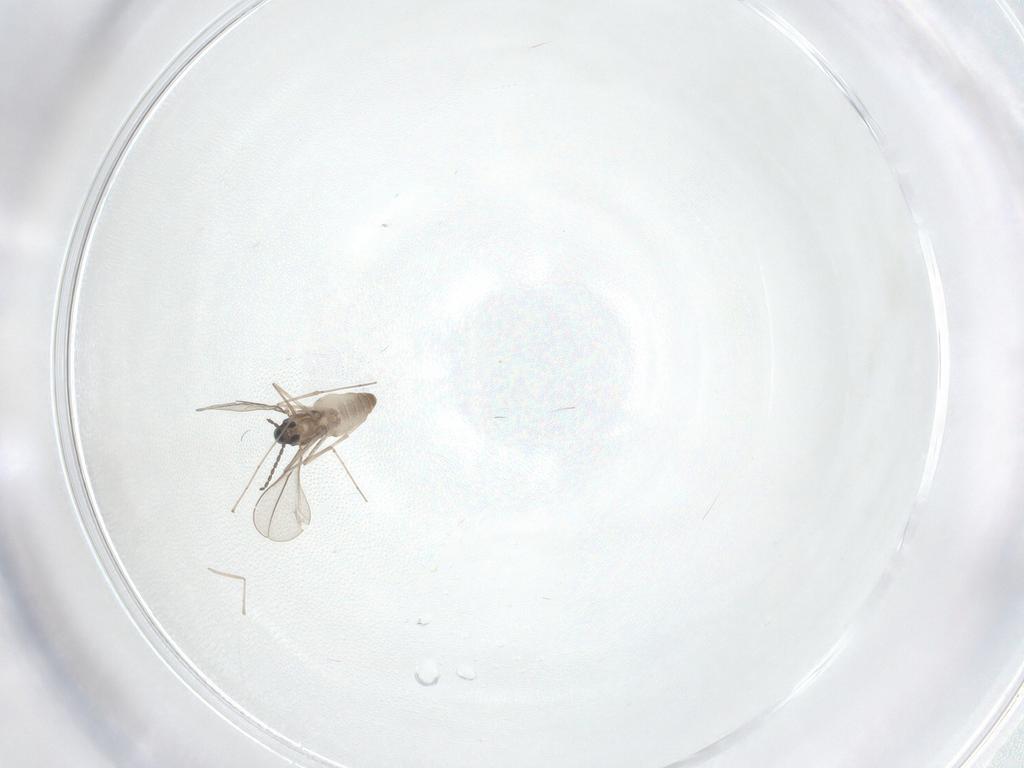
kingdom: Animalia
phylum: Arthropoda
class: Insecta
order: Diptera
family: Cecidomyiidae
